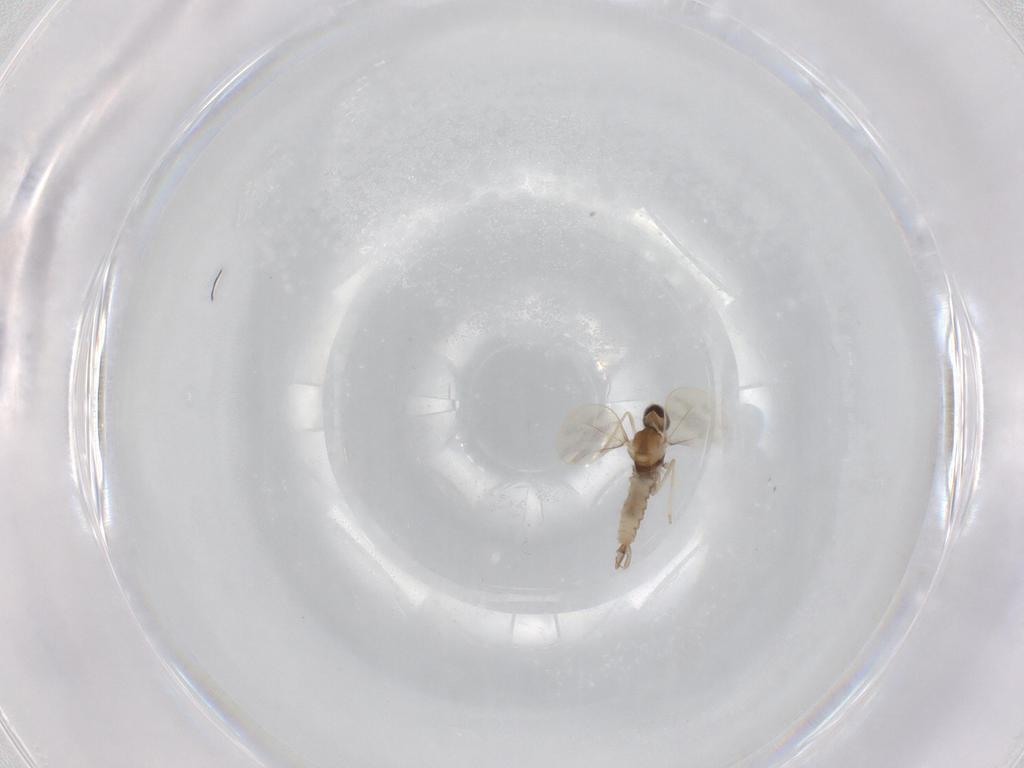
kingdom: Animalia
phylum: Arthropoda
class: Insecta
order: Diptera
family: Cecidomyiidae
